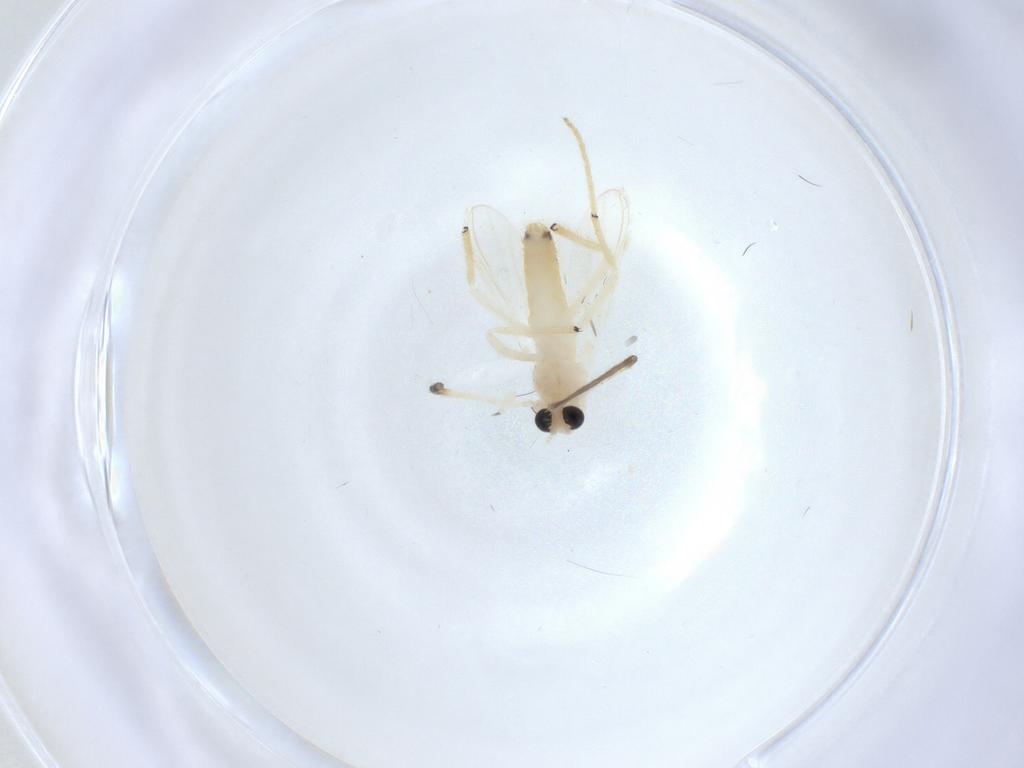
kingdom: Animalia
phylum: Arthropoda
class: Insecta
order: Diptera
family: Chironomidae
